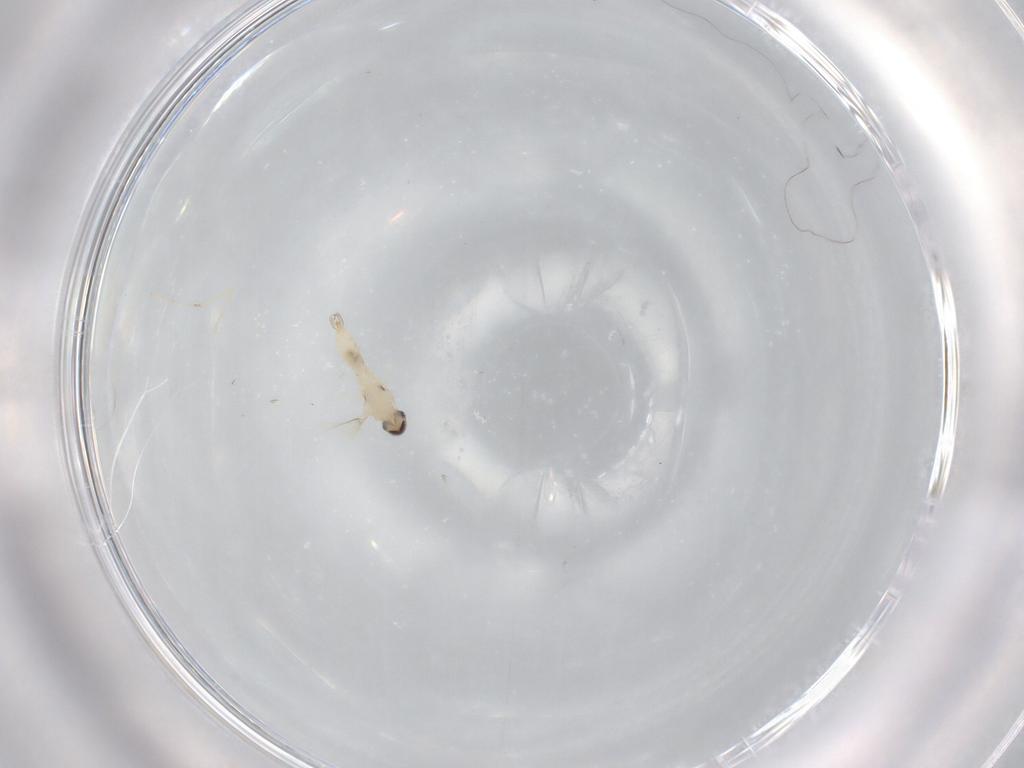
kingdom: Animalia
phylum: Arthropoda
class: Insecta
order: Diptera
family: Cecidomyiidae
